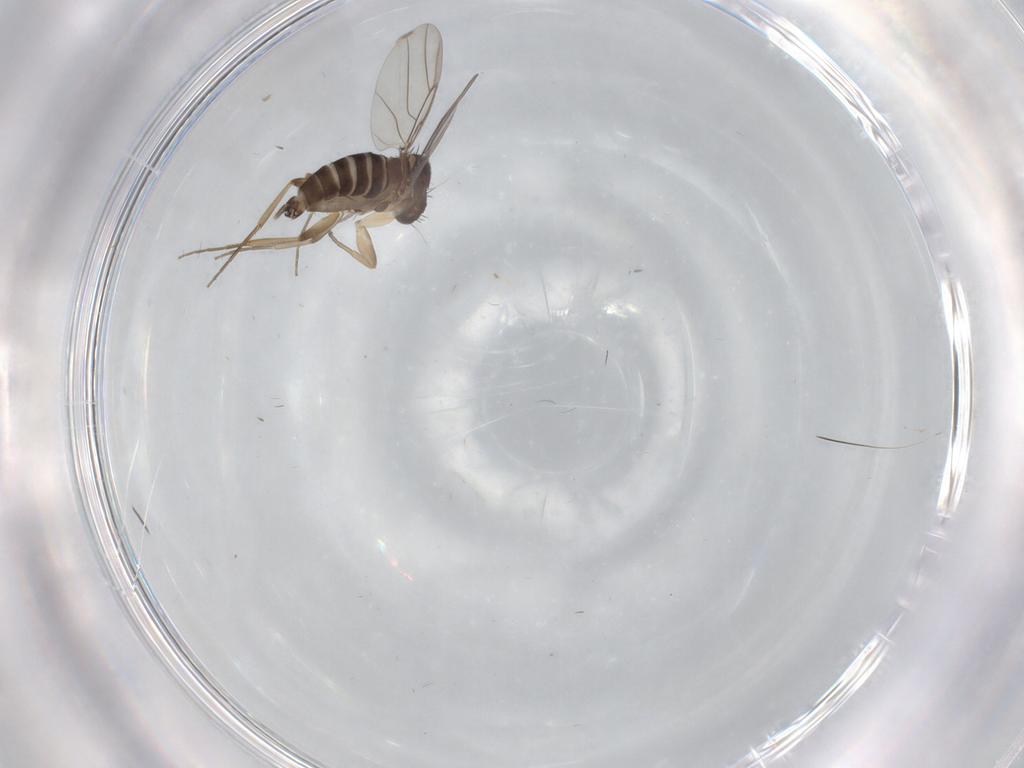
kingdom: Animalia
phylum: Arthropoda
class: Insecta
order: Diptera
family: Phoridae
